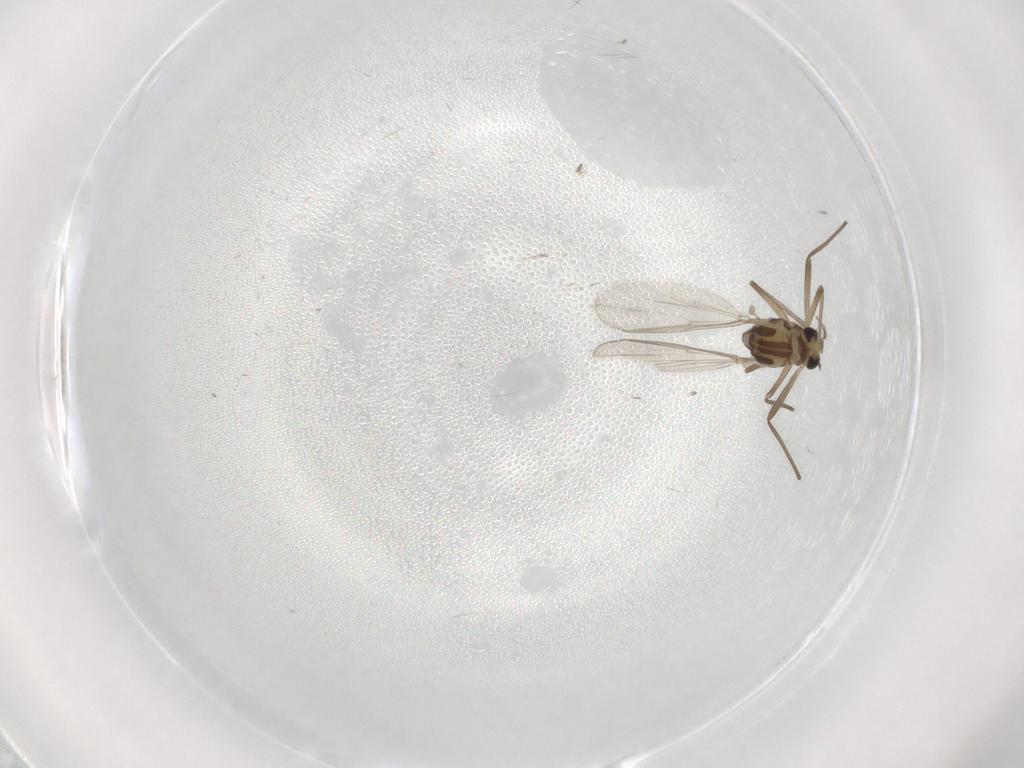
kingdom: Animalia
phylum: Arthropoda
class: Insecta
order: Diptera
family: Chironomidae
